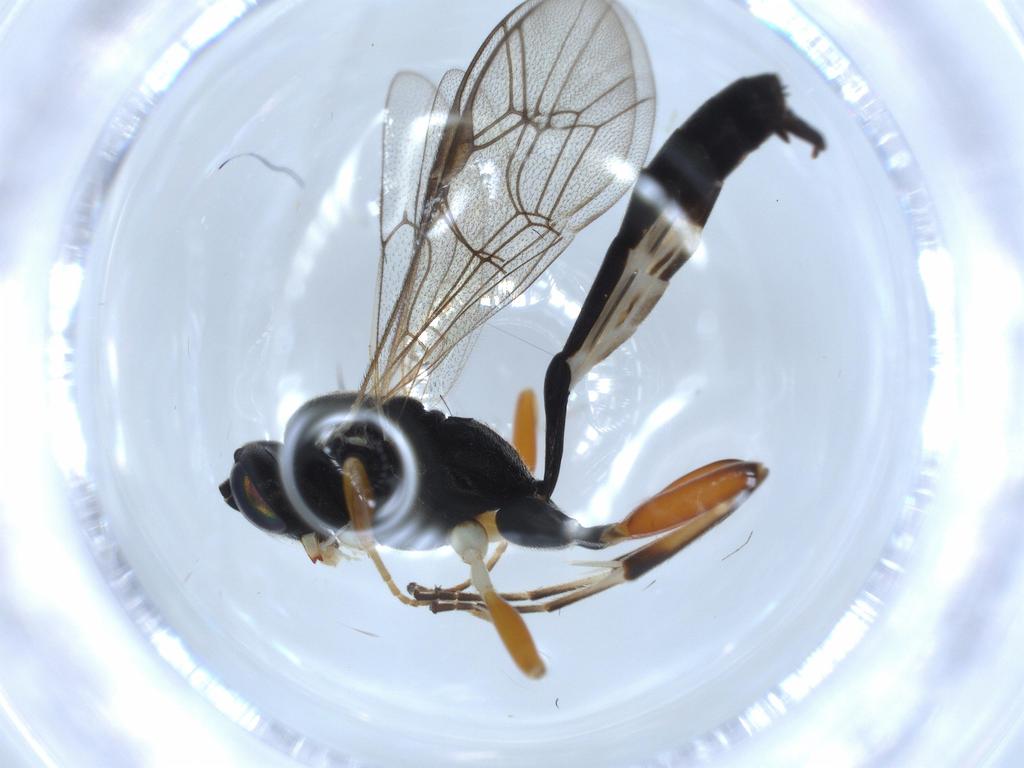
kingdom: Animalia
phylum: Arthropoda
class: Insecta
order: Hymenoptera
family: Ichneumonidae
